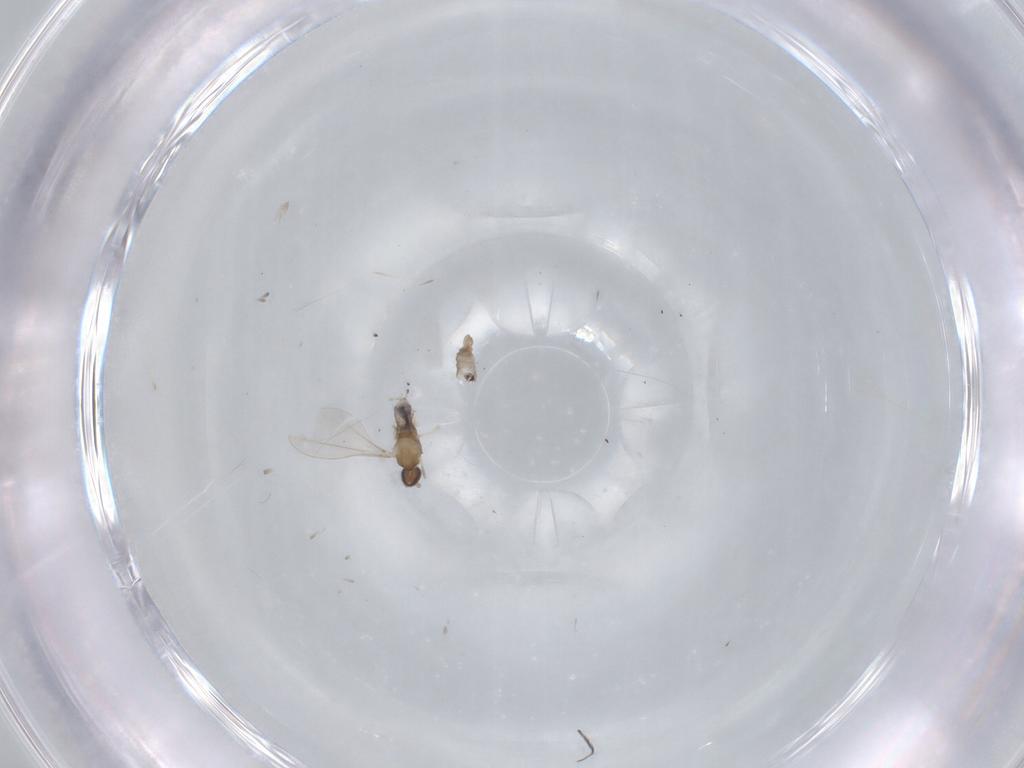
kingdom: Animalia
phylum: Arthropoda
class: Insecta
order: Diptera
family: Cecidomyiidae
